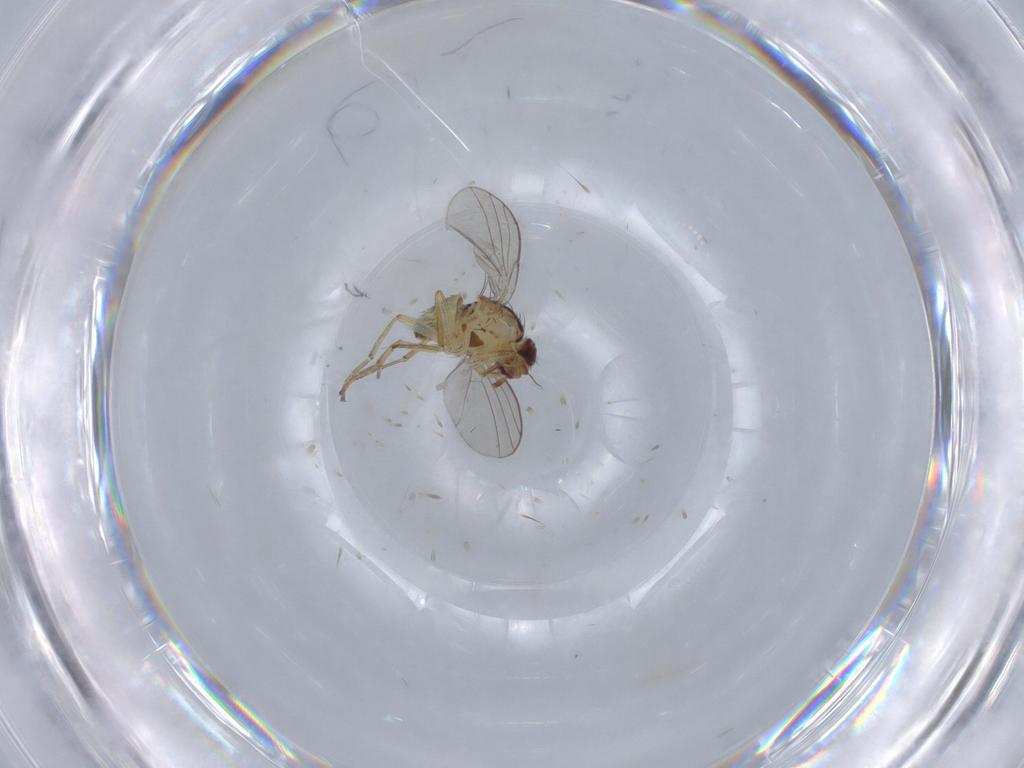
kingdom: Animalia
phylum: Arthropoda
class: Insecta
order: Diptera
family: Agromyzidae
